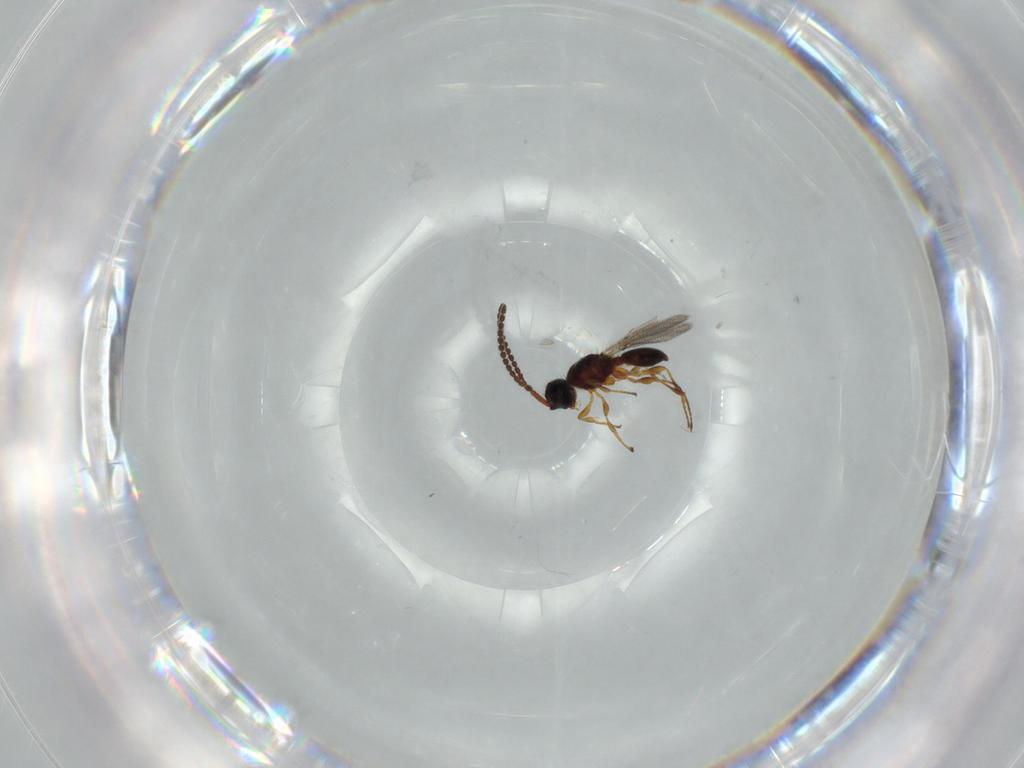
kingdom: Animalia
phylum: Arthropoda
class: Insecta
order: Hymenoptera
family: Diapriidae
